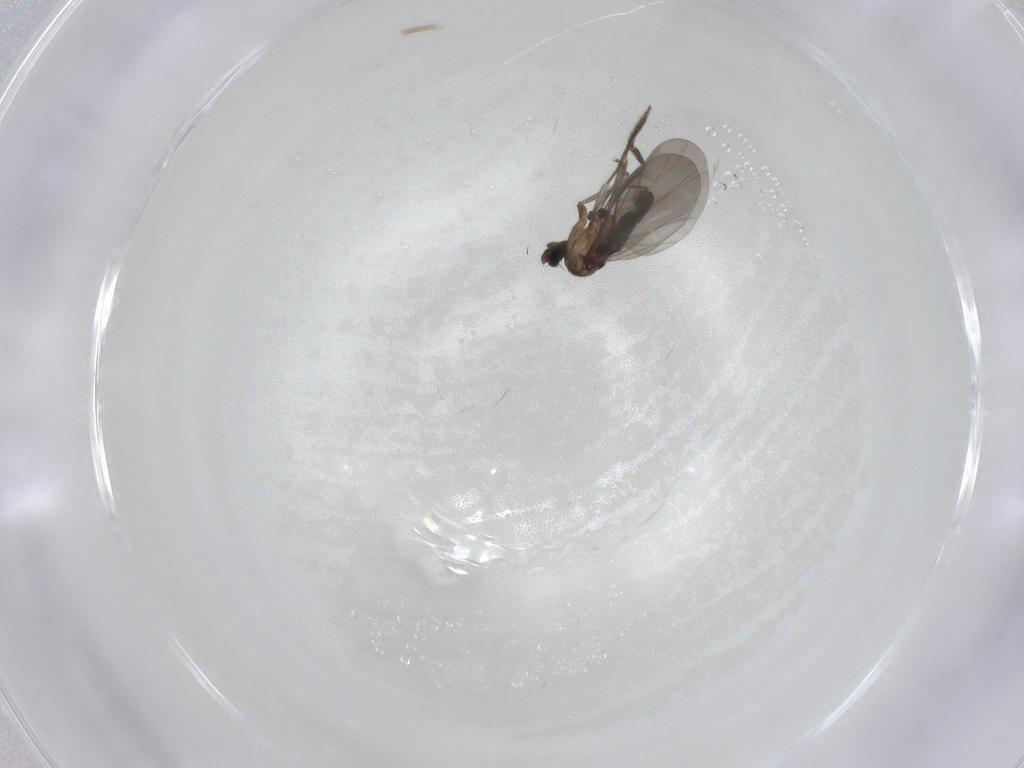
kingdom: Animalia
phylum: Arthropoda
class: Insecta
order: Diptera
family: Cecidomyiidae
